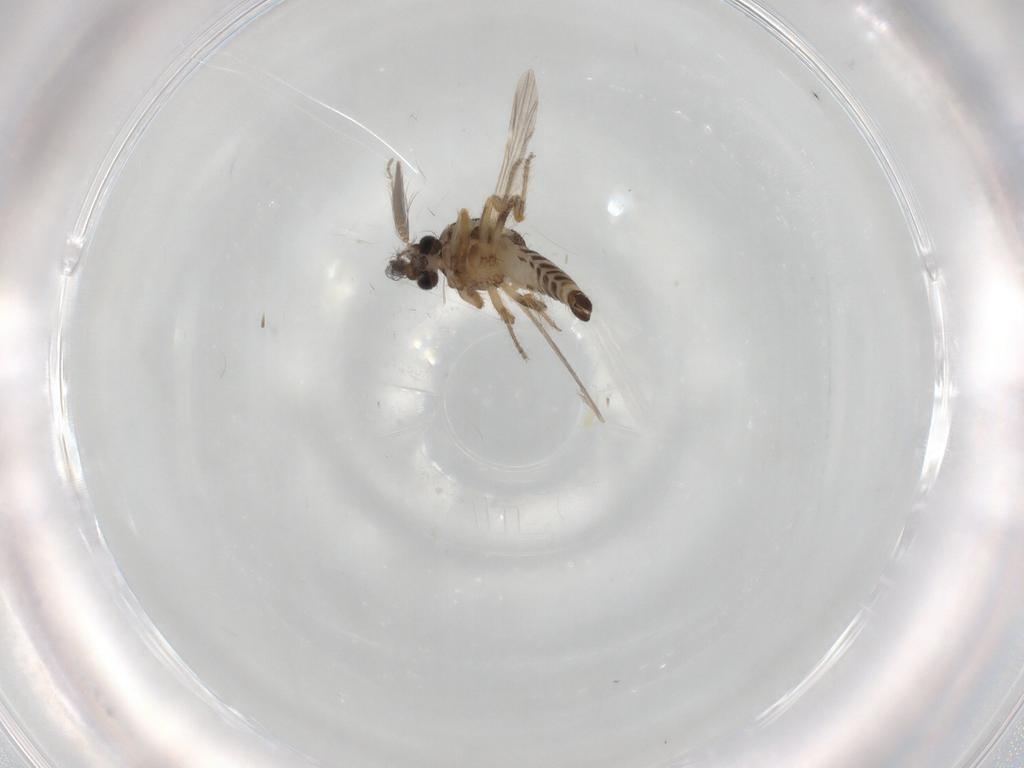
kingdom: Animalia
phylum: Arthropoda
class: Insecta
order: Diptera
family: Ceratopogonidae
